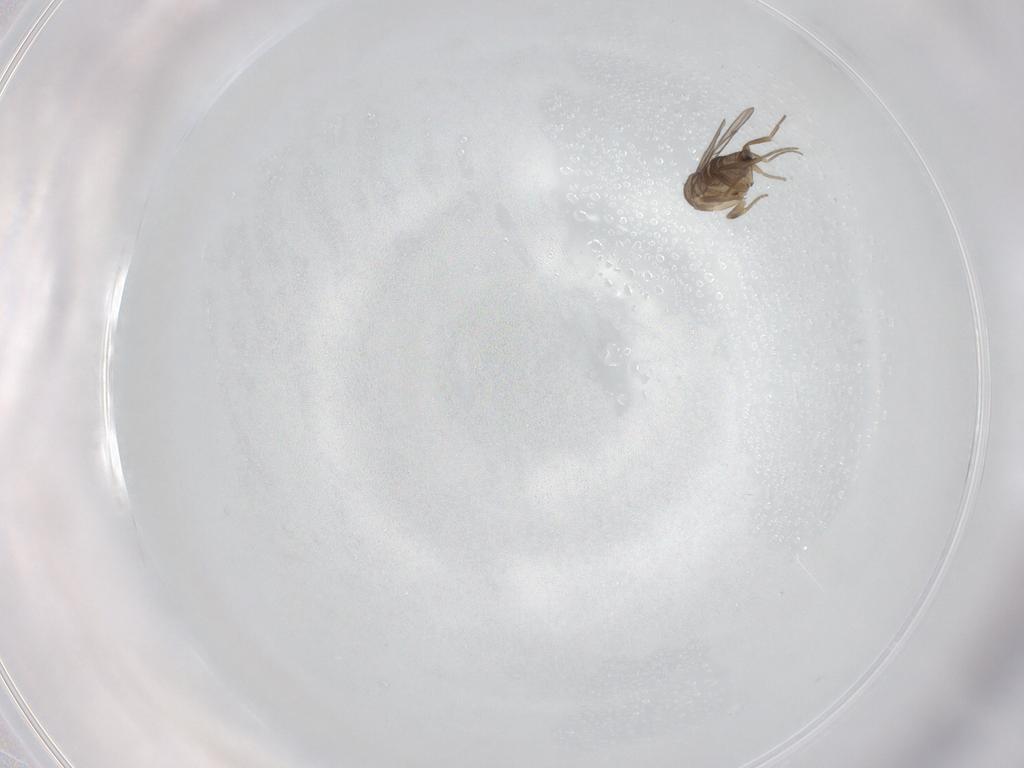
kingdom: Animalia
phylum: Arthropoda
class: Insecta
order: Diptera
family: Phoridae
